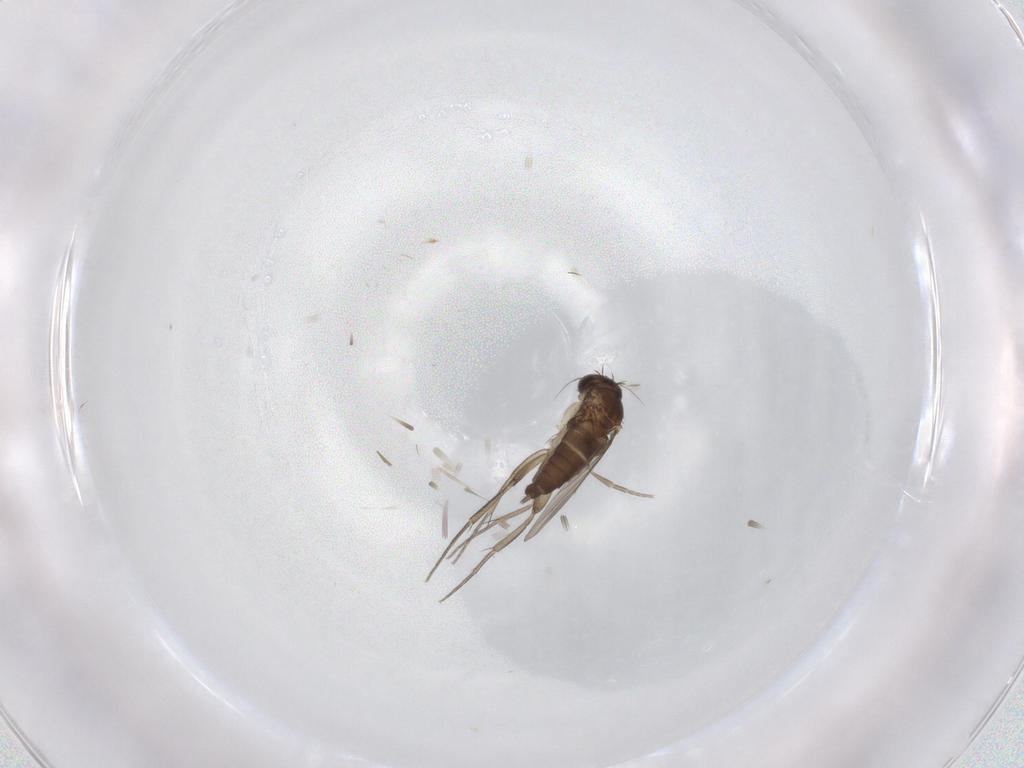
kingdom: Animalia
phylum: Arthropoda
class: Insecta
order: Diptera
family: Phoridae
